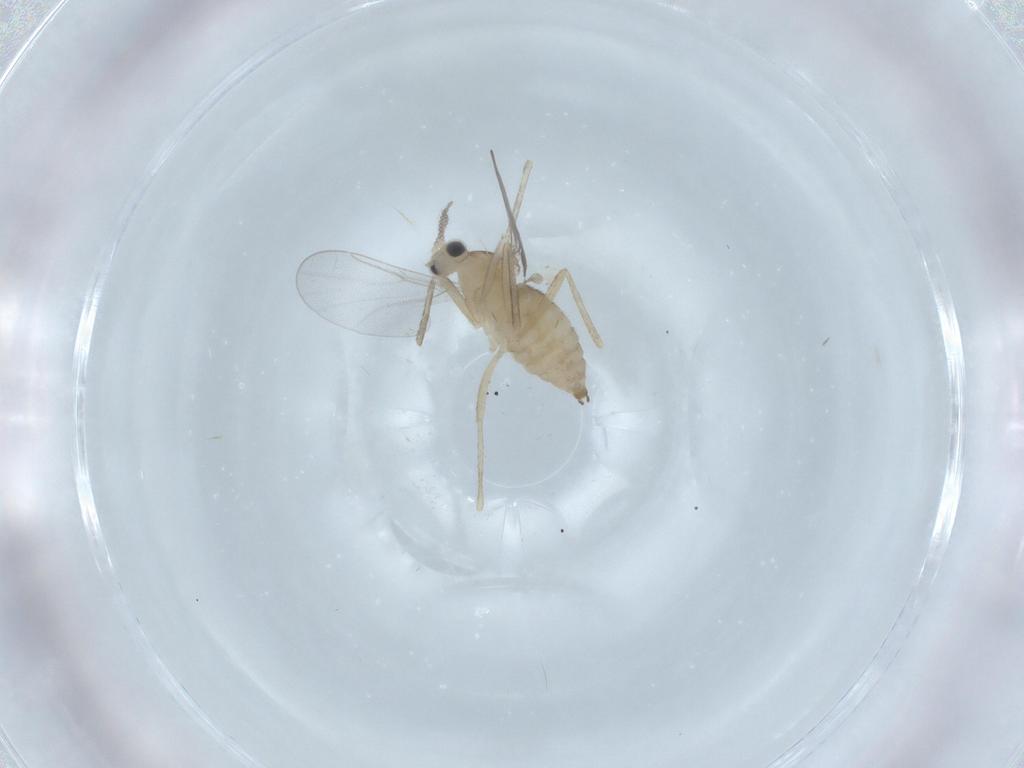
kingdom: Animalia
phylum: Arthropoda
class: Insecta
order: Diptera
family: Cecidomyiidae
